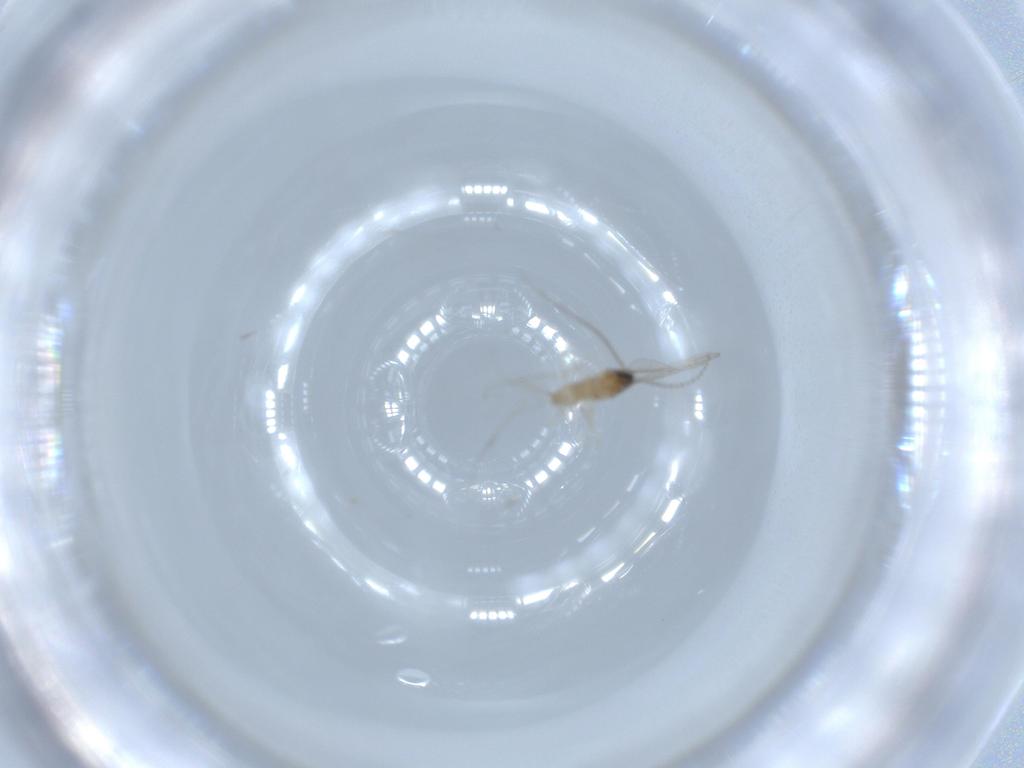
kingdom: Animalia
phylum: Arthropoda
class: Insecta
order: Diptera
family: Cecidomyiidae
